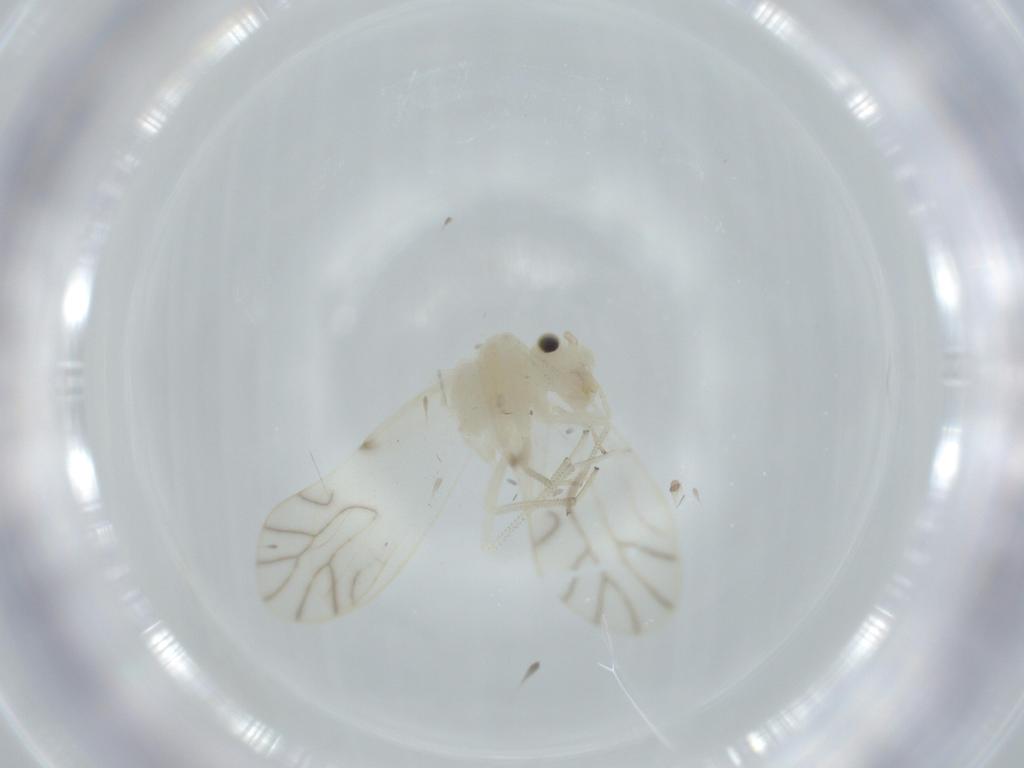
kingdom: Animalia
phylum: Arthropoda
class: Insecta
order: Psocodea
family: Caeciliusidae
